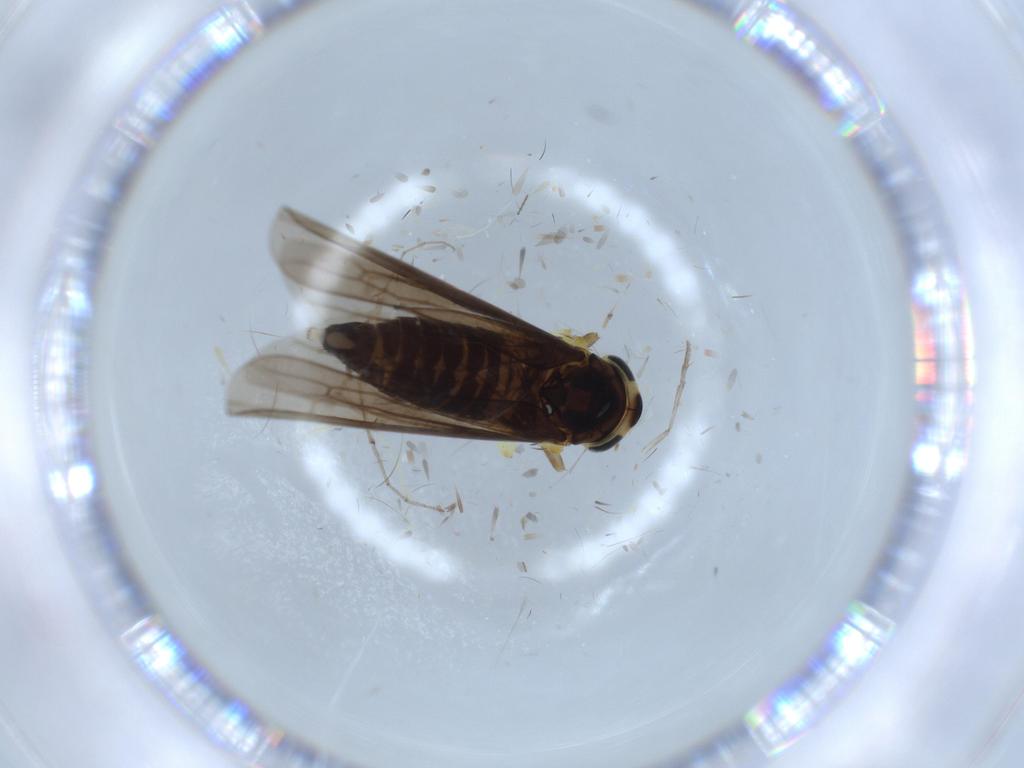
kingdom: Animalia
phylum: Arthropoda
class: Insecta
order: Hemiptera
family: Cicadellidae
